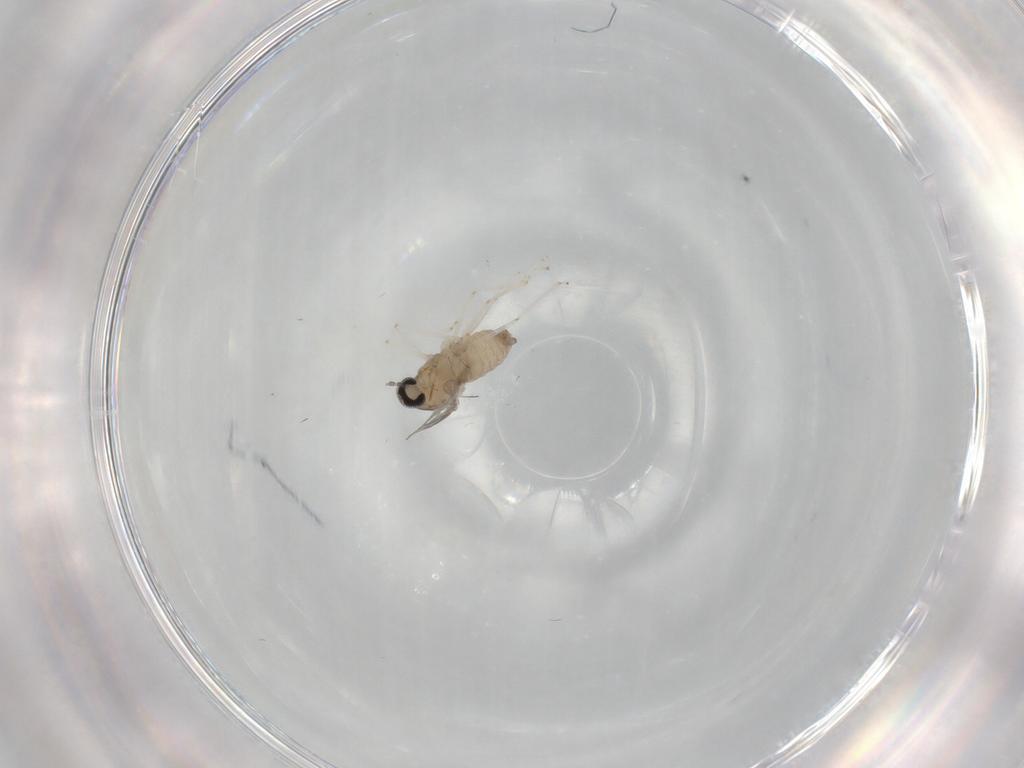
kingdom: Animalia
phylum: Arthropoda
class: Insecta
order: Diptera
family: Cecidomyiidae
